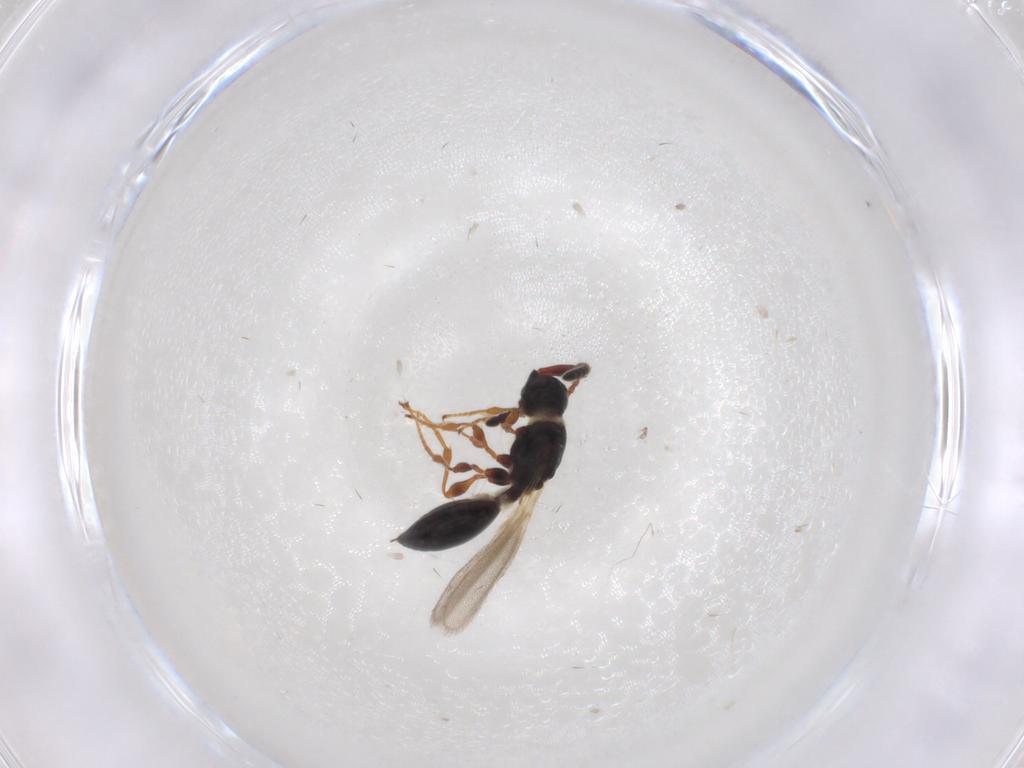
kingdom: Animalia
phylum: Arthropoda
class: Insecta
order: Hymenoptera
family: Diapriidae
